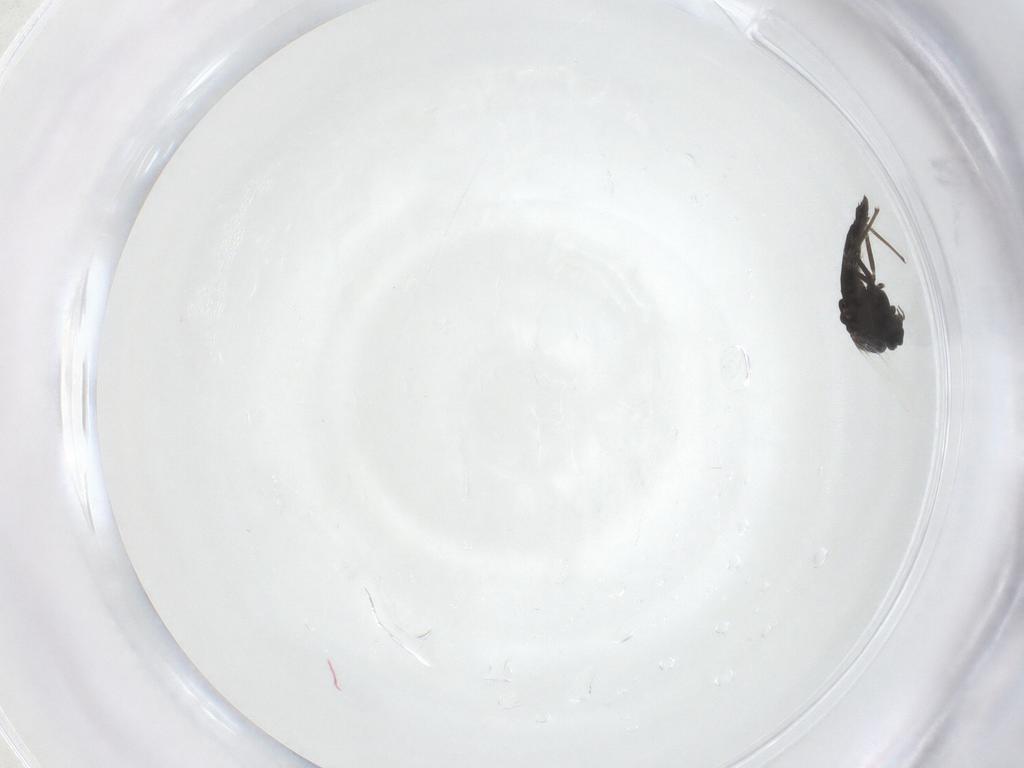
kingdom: Animalia
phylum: Arthropoda
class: Insecta
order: Diptera
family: Chironomidae
